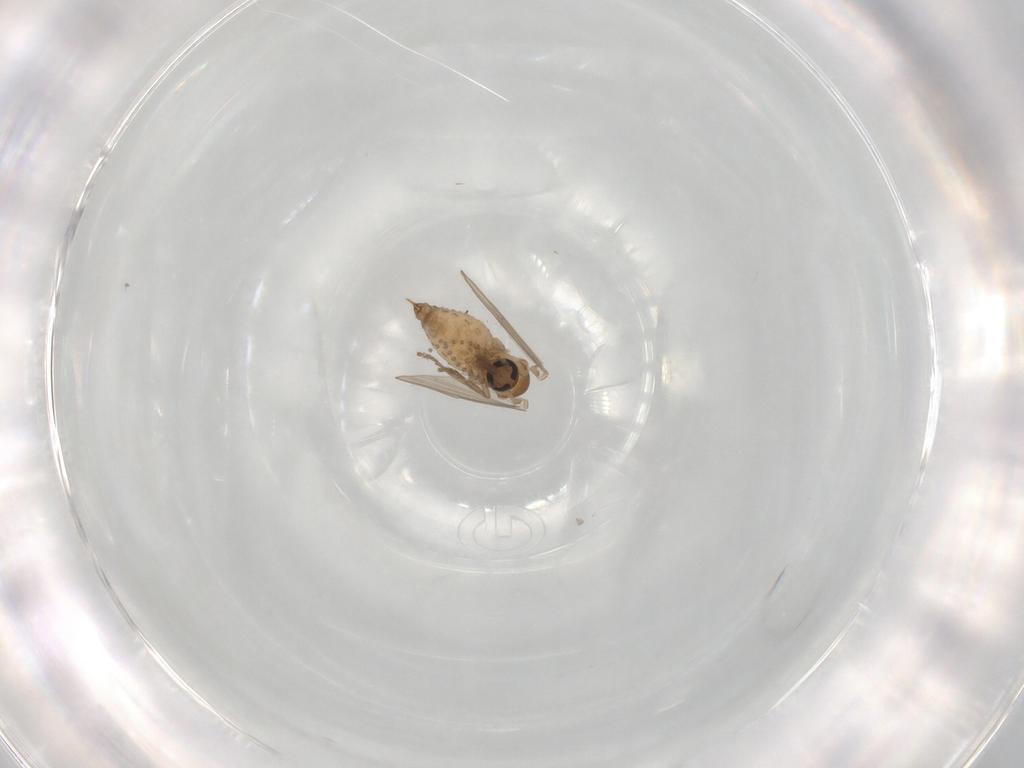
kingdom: Animalia
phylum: Arthropoda
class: Insecta
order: Diptera
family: Psychodidae
